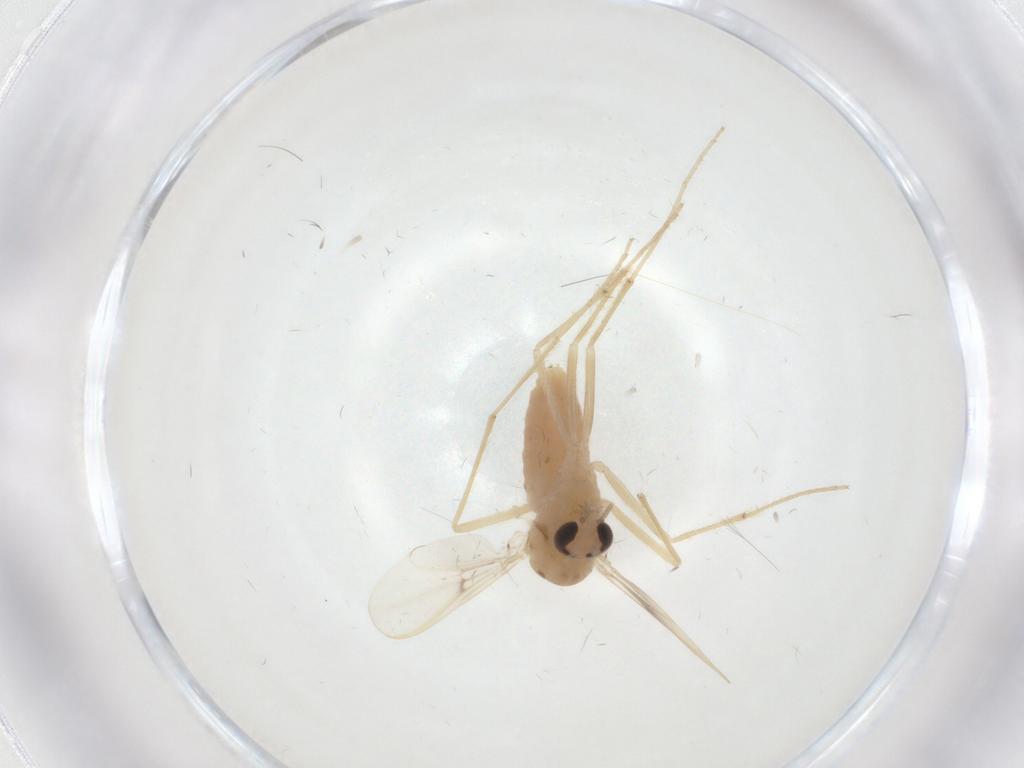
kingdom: Animalia
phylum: Arthropoda
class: Insecta
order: Diptera
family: Chironomidae
